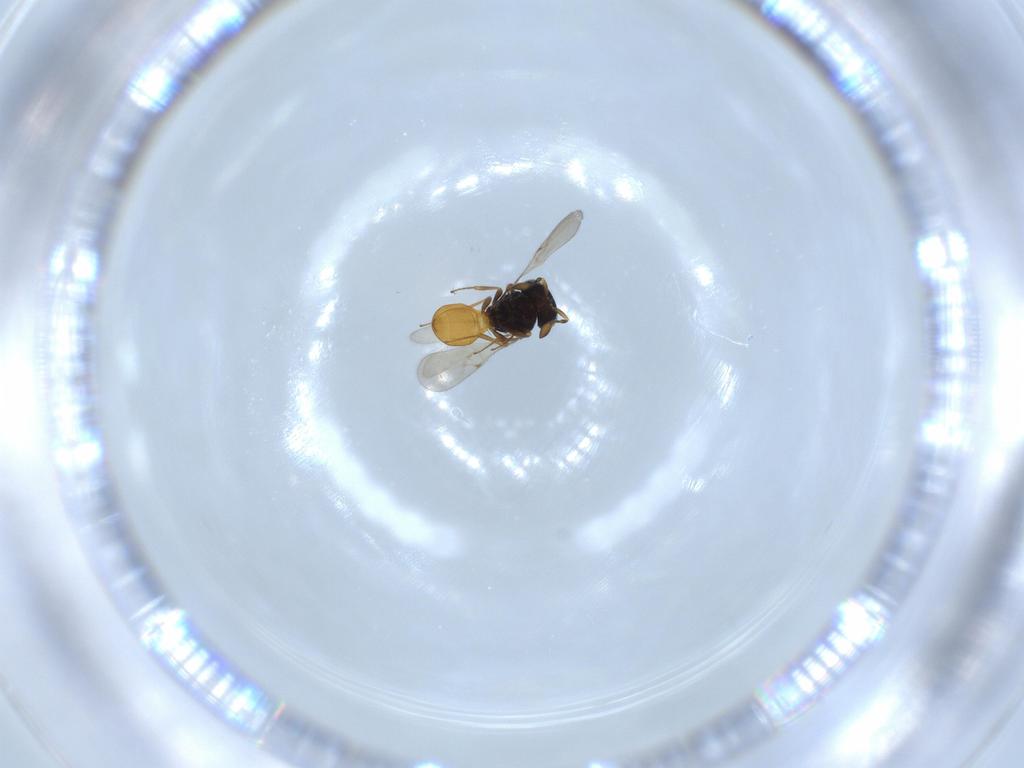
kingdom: Animalia
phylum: Arthropoda
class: Insecta
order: Hymenoptera
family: Scelionidae
